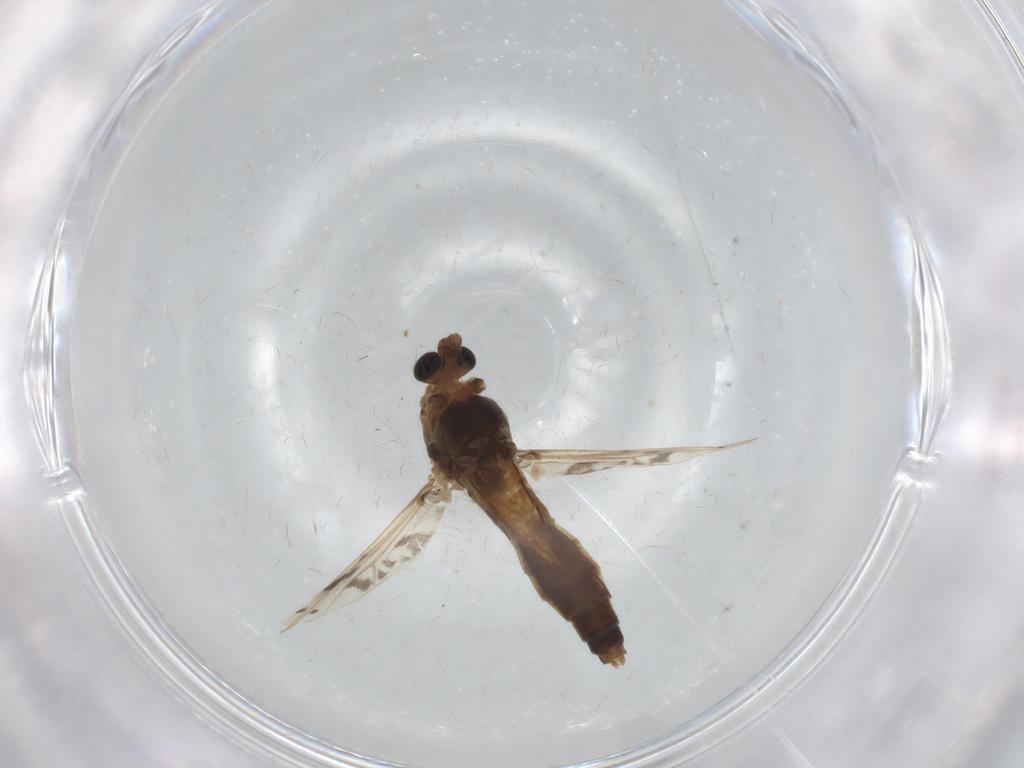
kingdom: Animalia
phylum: Arthropoda
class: Insecta
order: Diptera
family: Chironomidae
